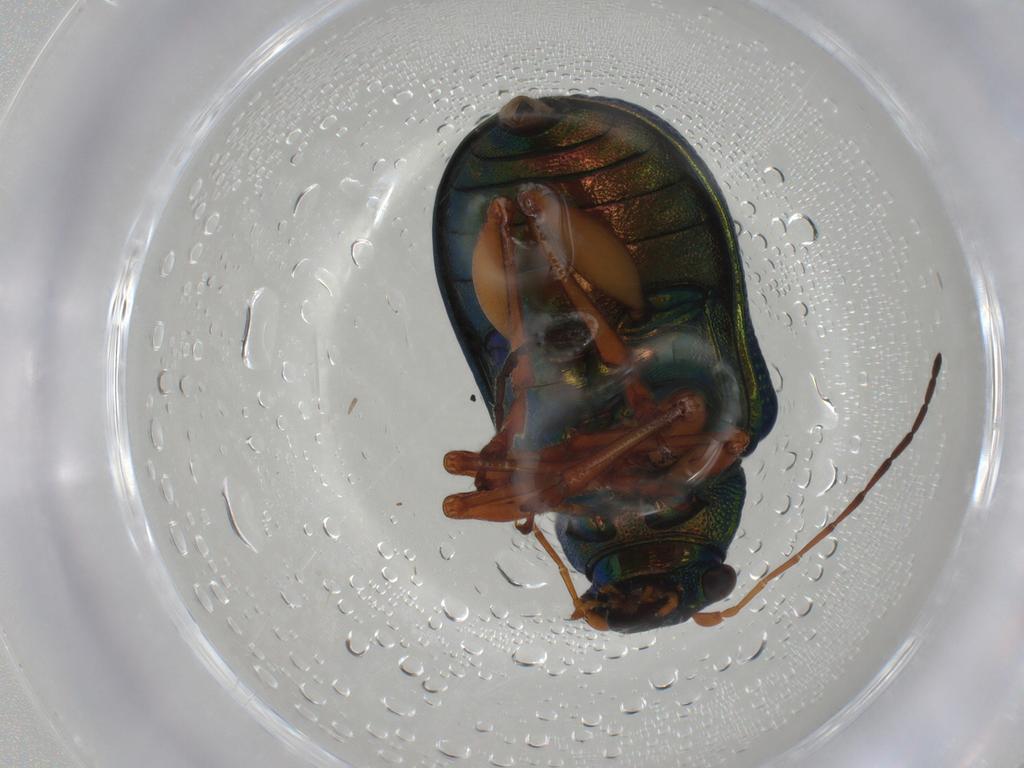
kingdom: Animalia
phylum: Arthropoda
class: Insecta
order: Coleoptera
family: Chrysomelidae
